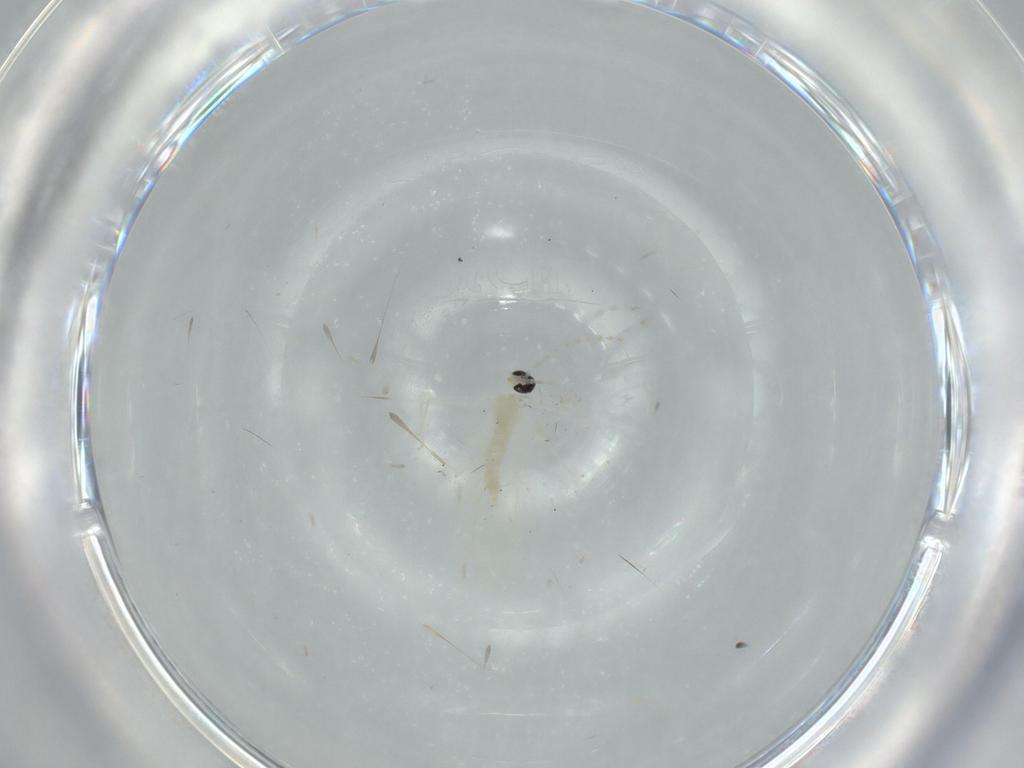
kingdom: Animalia
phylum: Arthropoda
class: Insecta
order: Diptera
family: Cecidomyiidae
